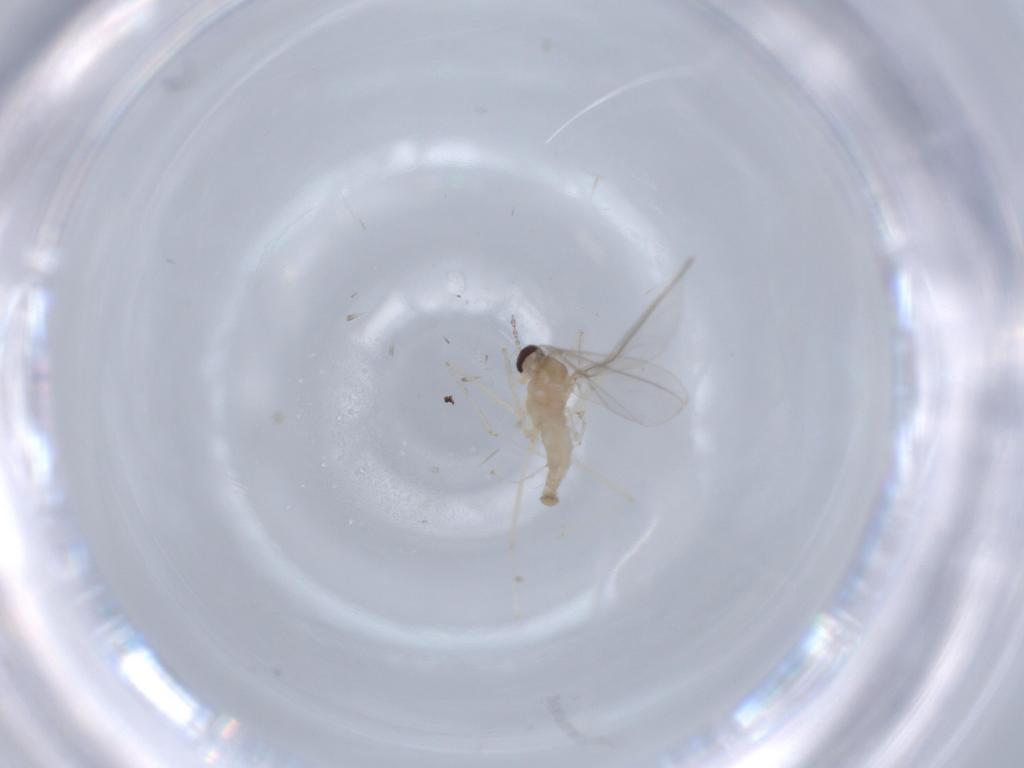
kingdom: Animalia
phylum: Arthropoda
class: Insecta
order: Diptera
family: Cecidomyiidae
